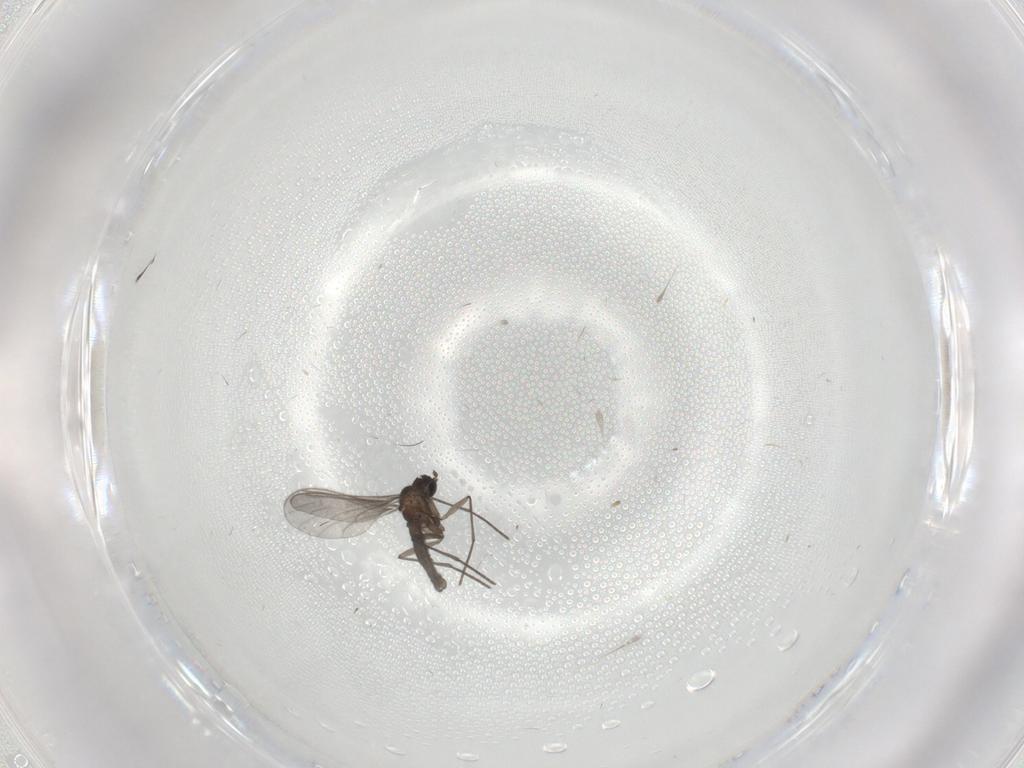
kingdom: Animalia
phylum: Arthropoda
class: Insecta
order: Diptera
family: Sciaridae
